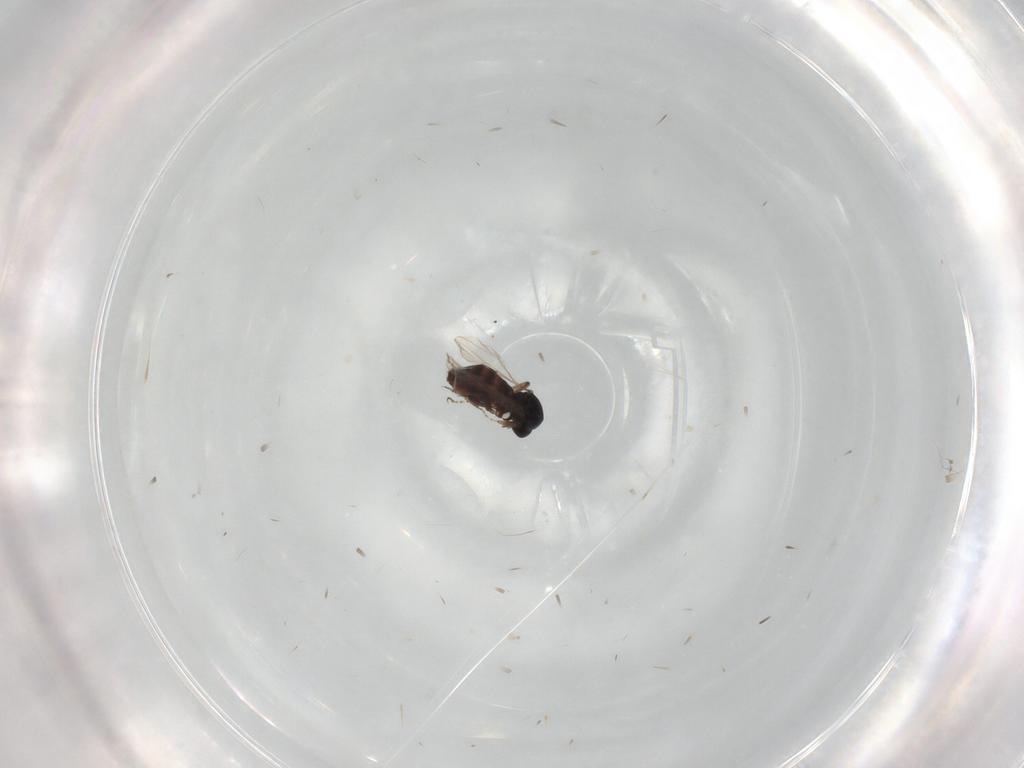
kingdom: Animalia
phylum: Arthropoda
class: Insecta
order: Diptera
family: Ceratopogonidae
